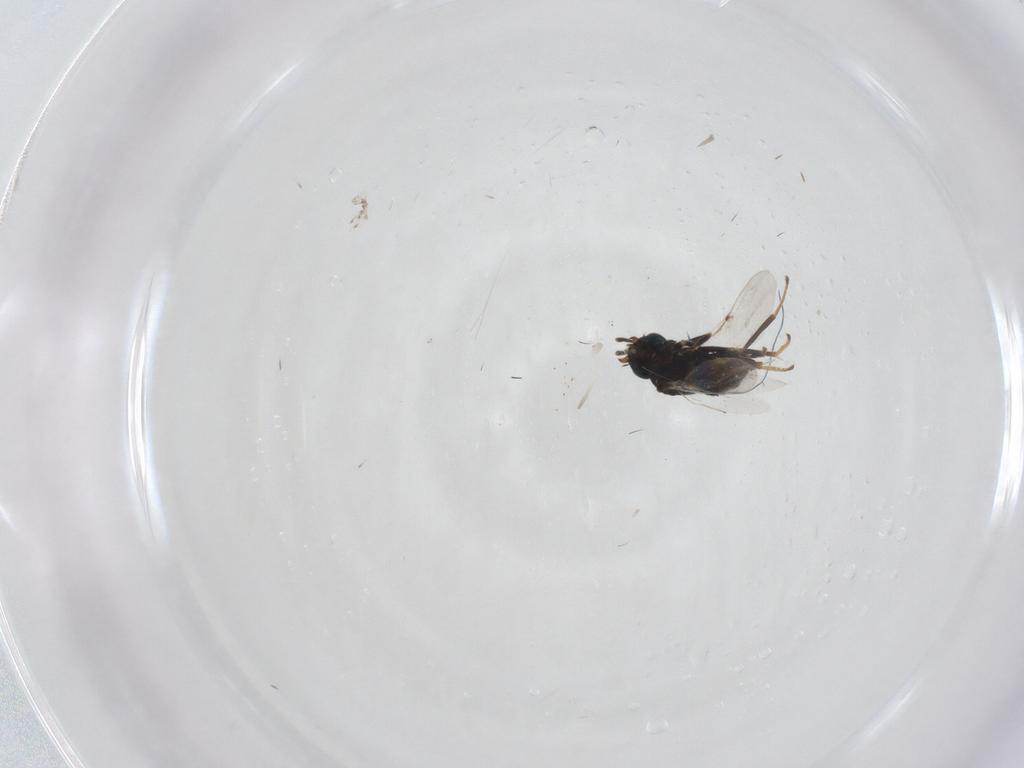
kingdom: Animalia
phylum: Arthropoda
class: Insecta
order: Hymenoptera
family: Encyrtidae
